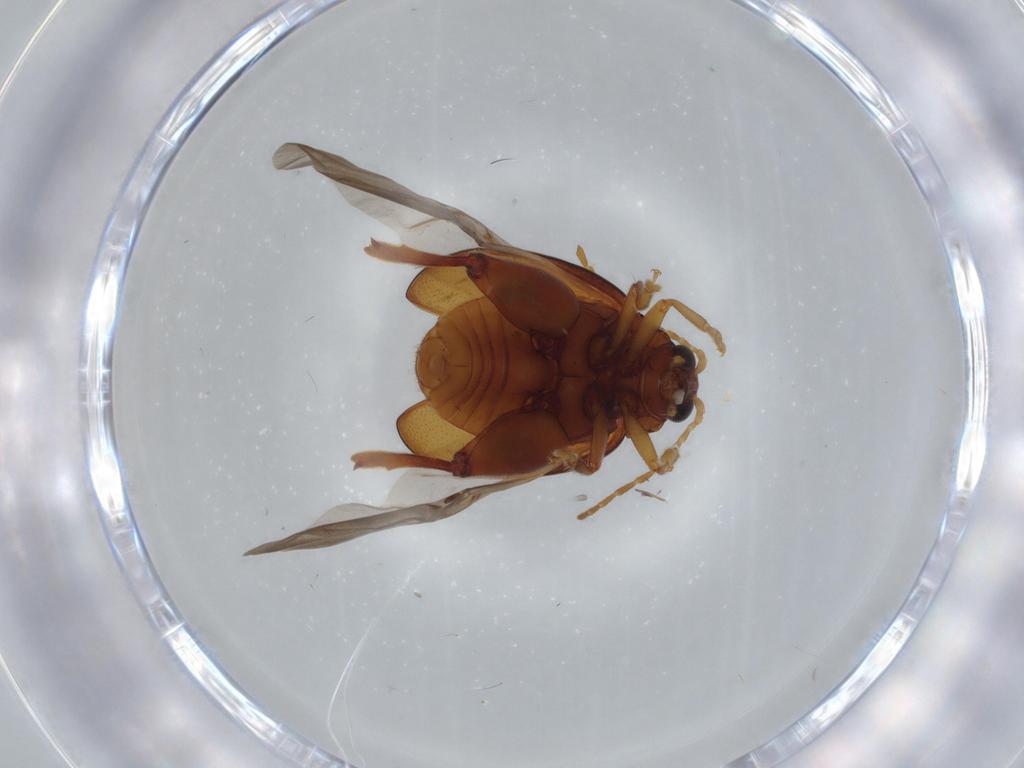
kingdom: Animalia
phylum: Arthropoda
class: Insecta
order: Coleoptera
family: Chrysomelidae
